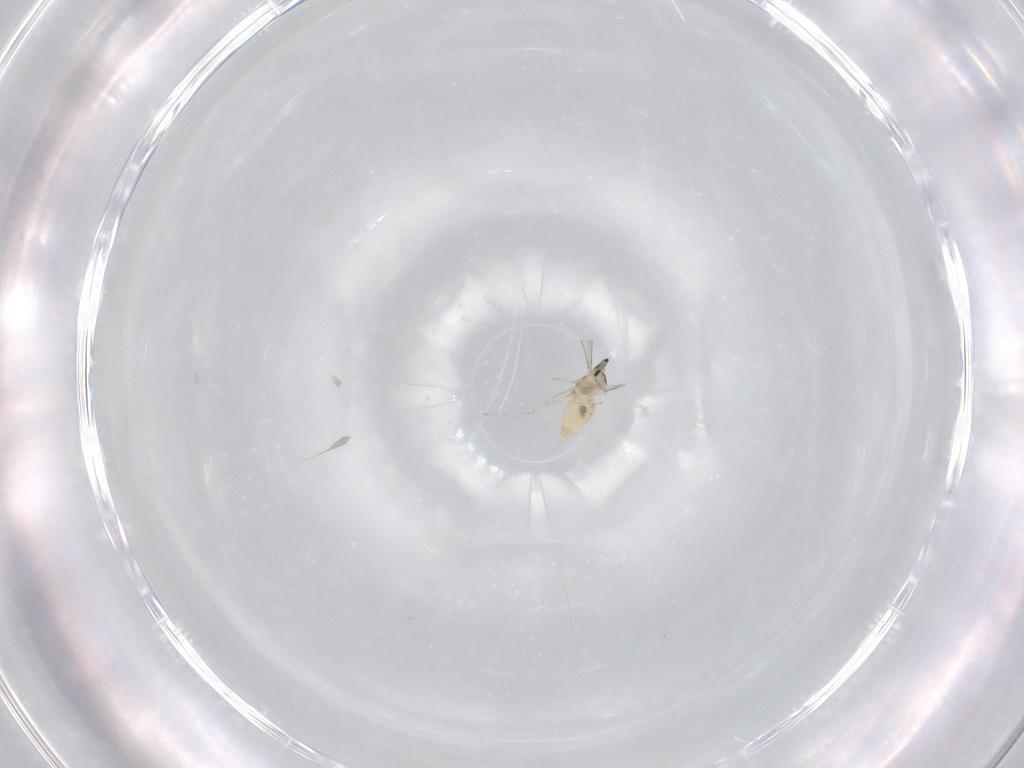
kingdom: Animalia
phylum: Arthropoda
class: Insecta
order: Diptera
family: Cecidomyiidae
